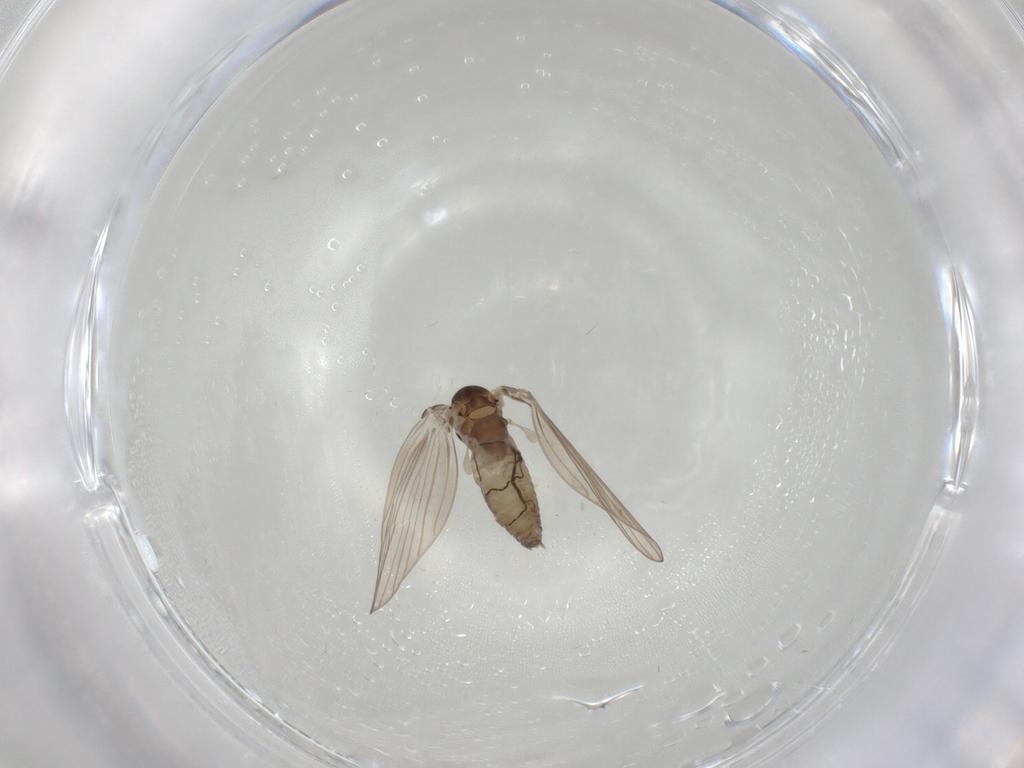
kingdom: Animalia
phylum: Arthropoda
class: Insecta
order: Diptera
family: Psychodidae
